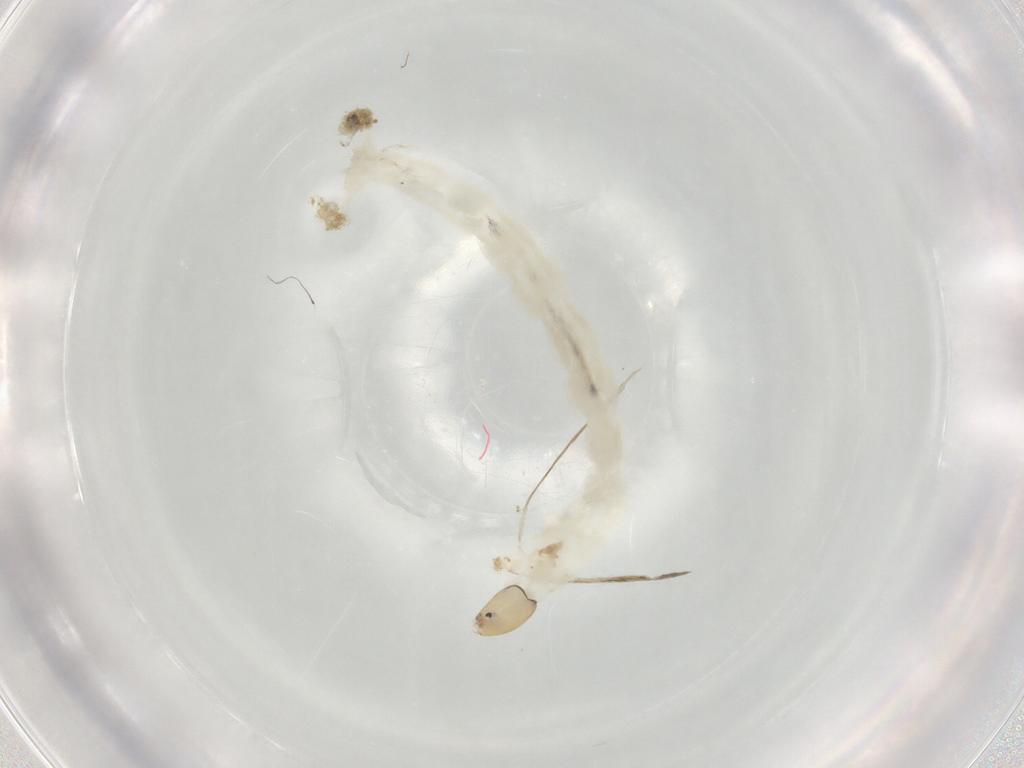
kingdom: Animalia
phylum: Arthropoda
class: Insecta
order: Diptera
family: Chironomidae
